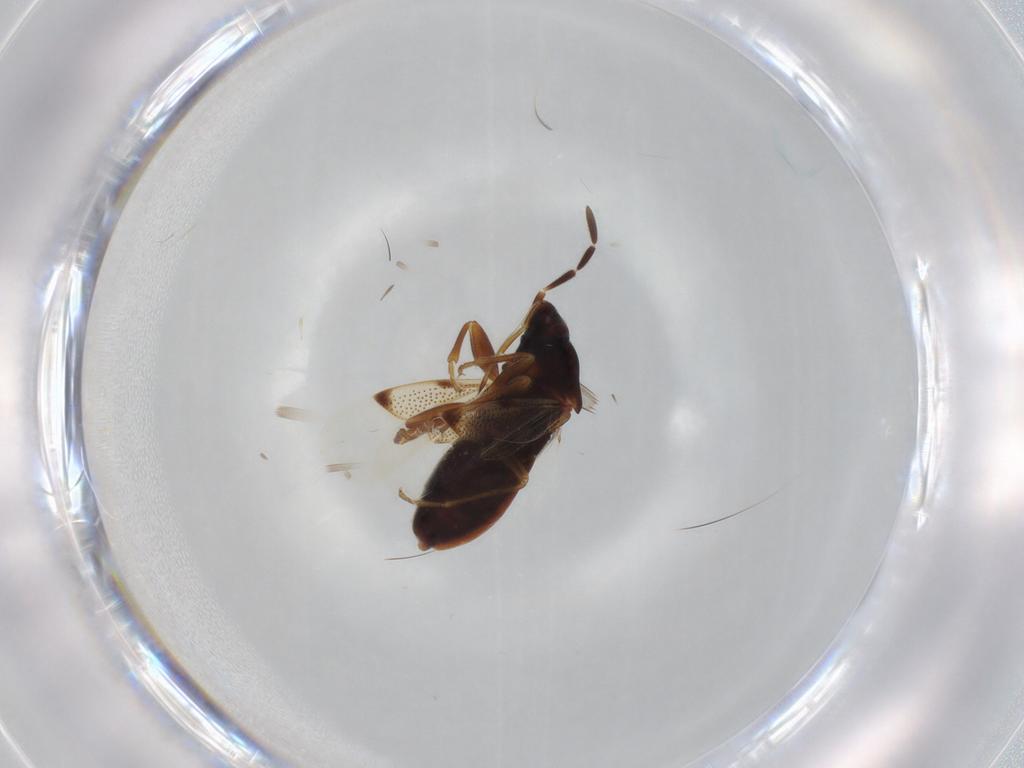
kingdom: Animalia
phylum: Arthropoda
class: Insecta
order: Hemiptera
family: Rhyparochromidae
